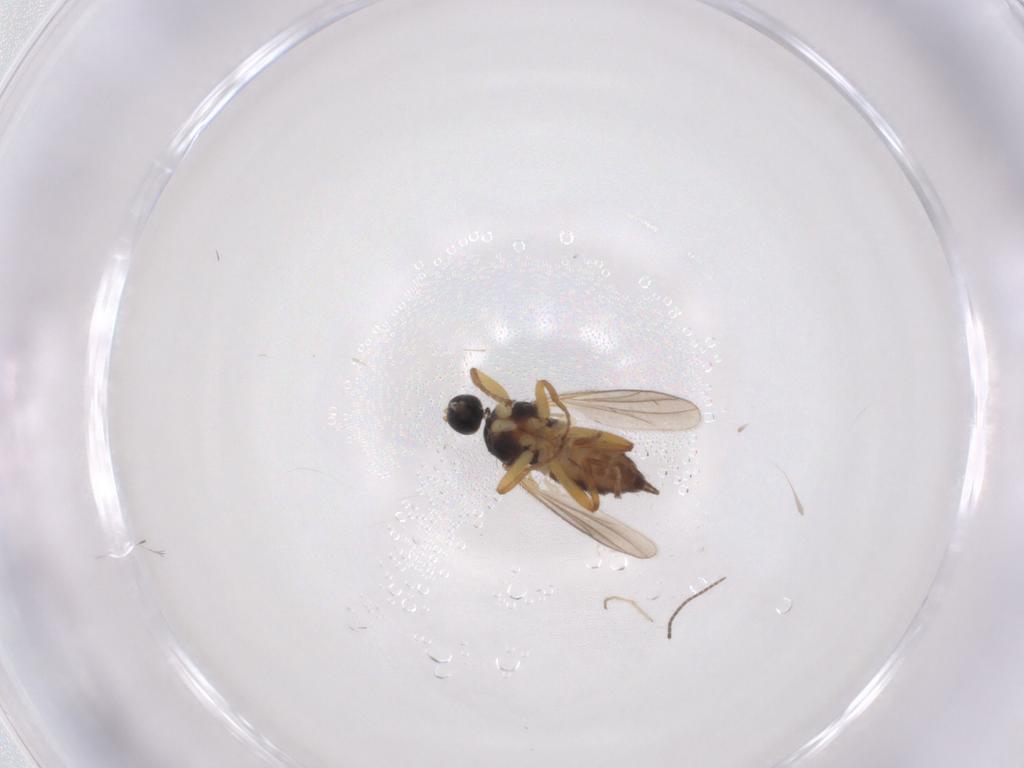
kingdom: Animalia
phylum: Arthropoda
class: Insecta
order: Diptera
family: Hybotidae
